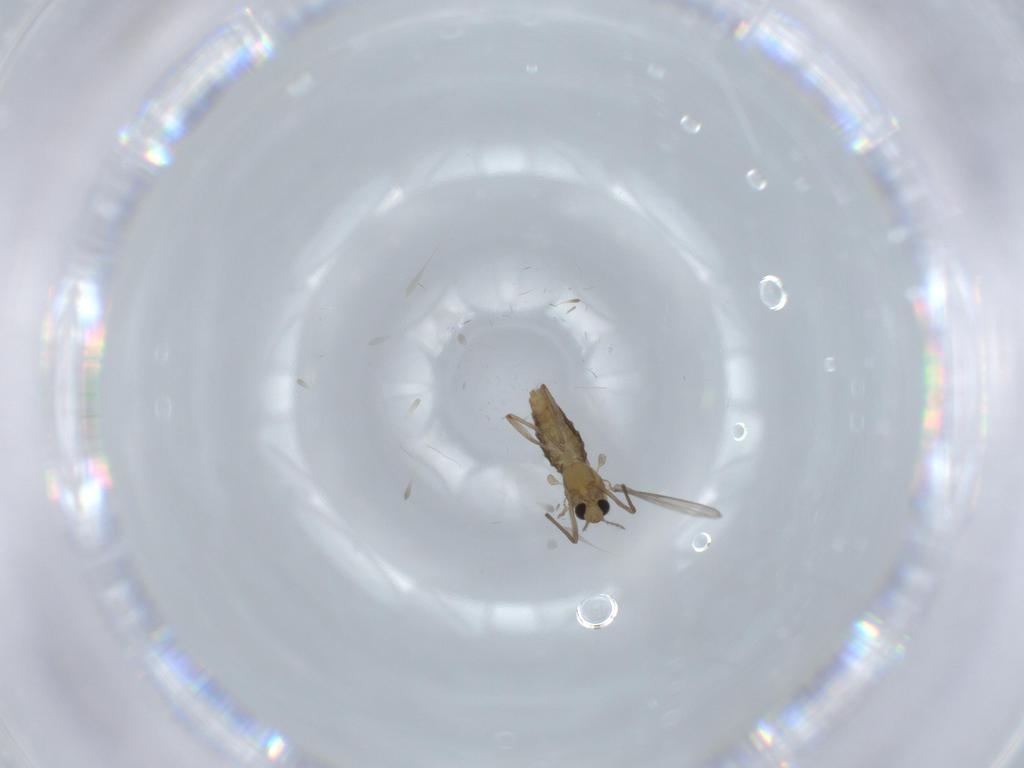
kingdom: Animalia
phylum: Arthropoda
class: Insecta
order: Diptera
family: Chironomidae
